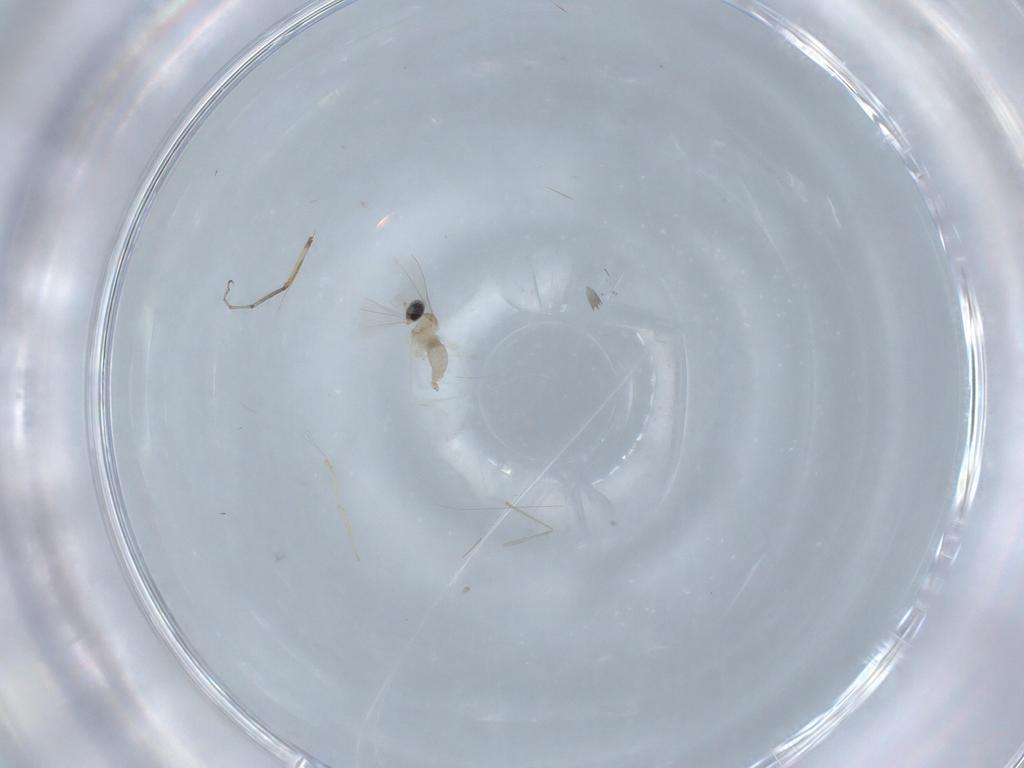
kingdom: Animalia
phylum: Arthropoda
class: Insecta
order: Diptera
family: Cecidomyiidae
